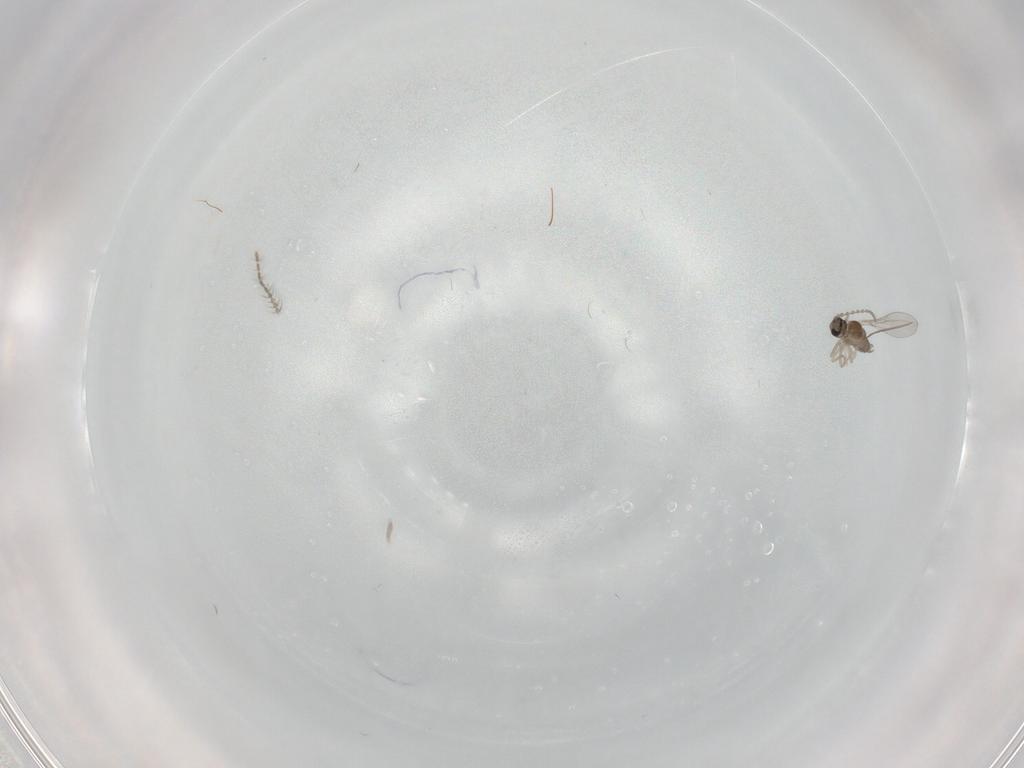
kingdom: Animalia
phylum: Arthropoda
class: Insecta
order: Diptera
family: Cecidomyiidae
